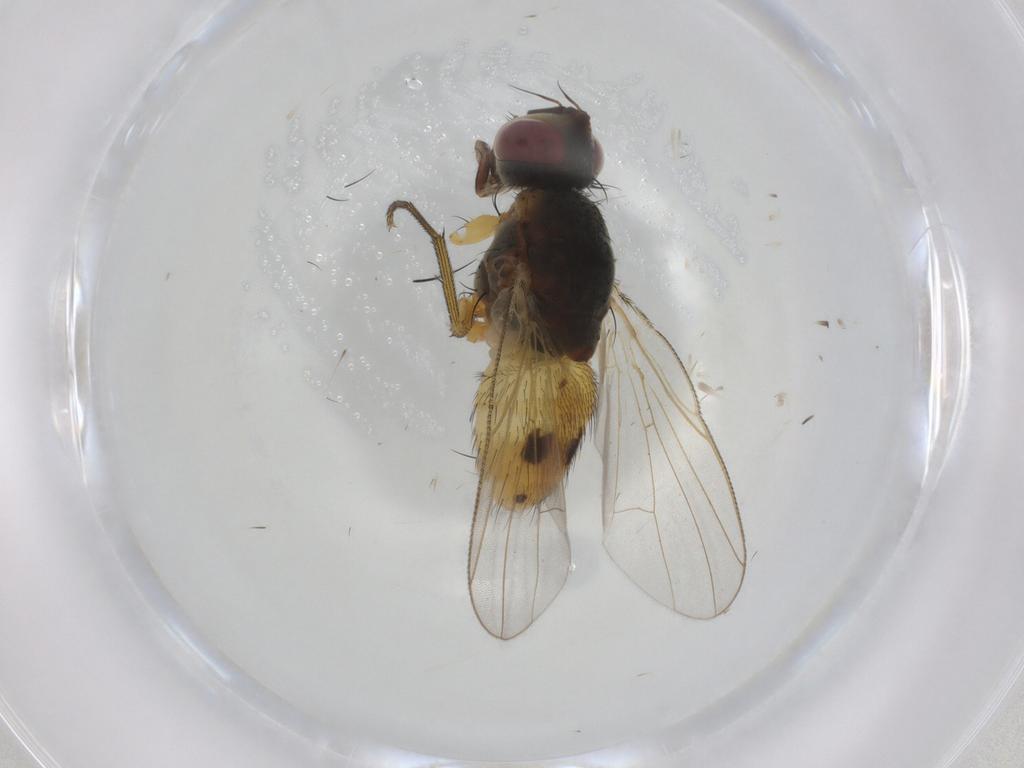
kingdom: Animalia
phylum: Arthropoda
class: Insecta
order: Diptera
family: Muscidae
